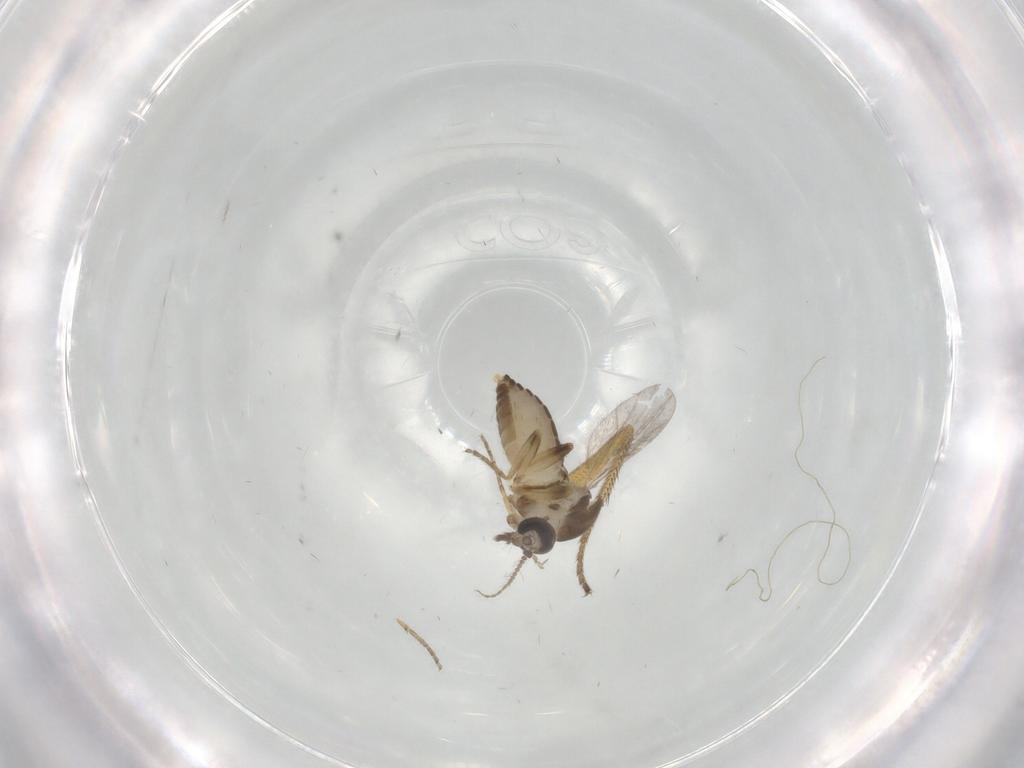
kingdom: Animalia
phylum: Arthropoda
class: Insecta
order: Diptera
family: Ceratopogonidae
